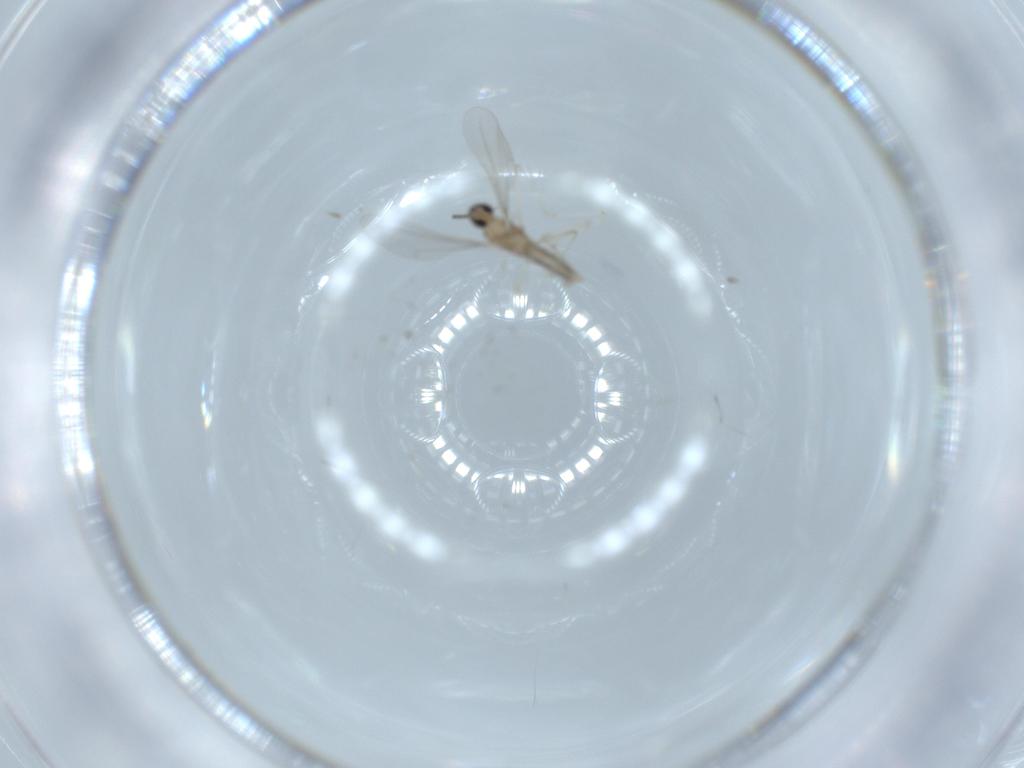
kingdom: Animalia
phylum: Arthropoda
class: Insecta
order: Diptera
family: Cecidomyiidae
